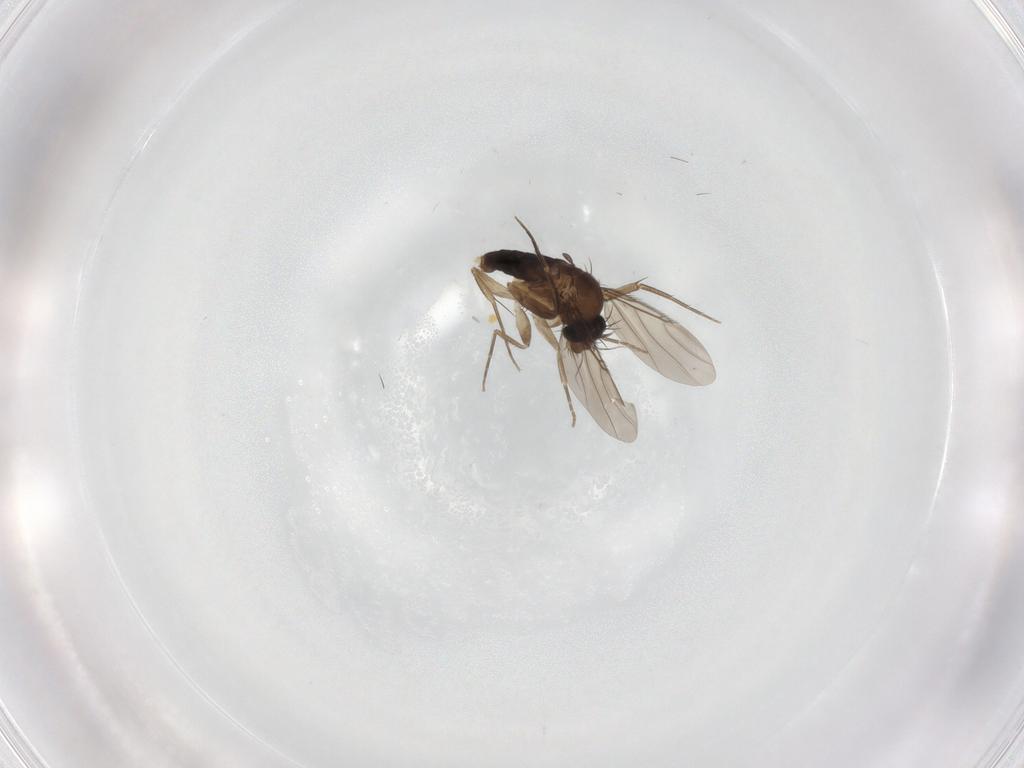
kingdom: Animalia
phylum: Arthropoda
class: Insecta
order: Diptera
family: Phoridae
